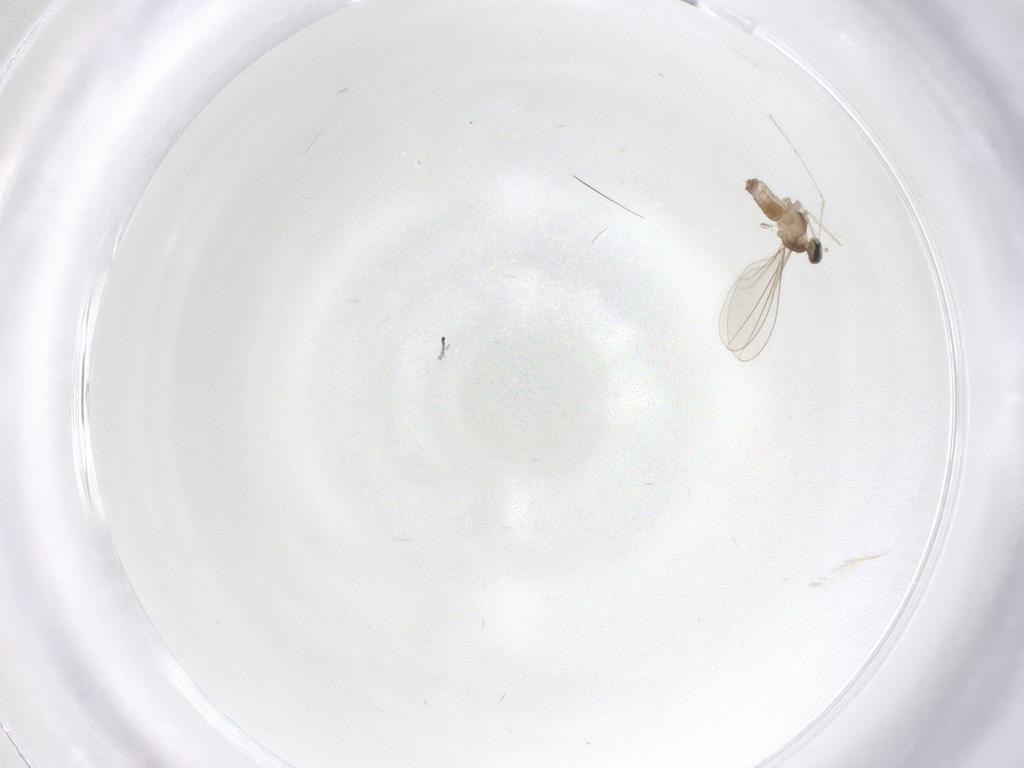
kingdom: Animalia
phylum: Arthropoda
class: Insecta
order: Diptera
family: Cecidomyiidae
